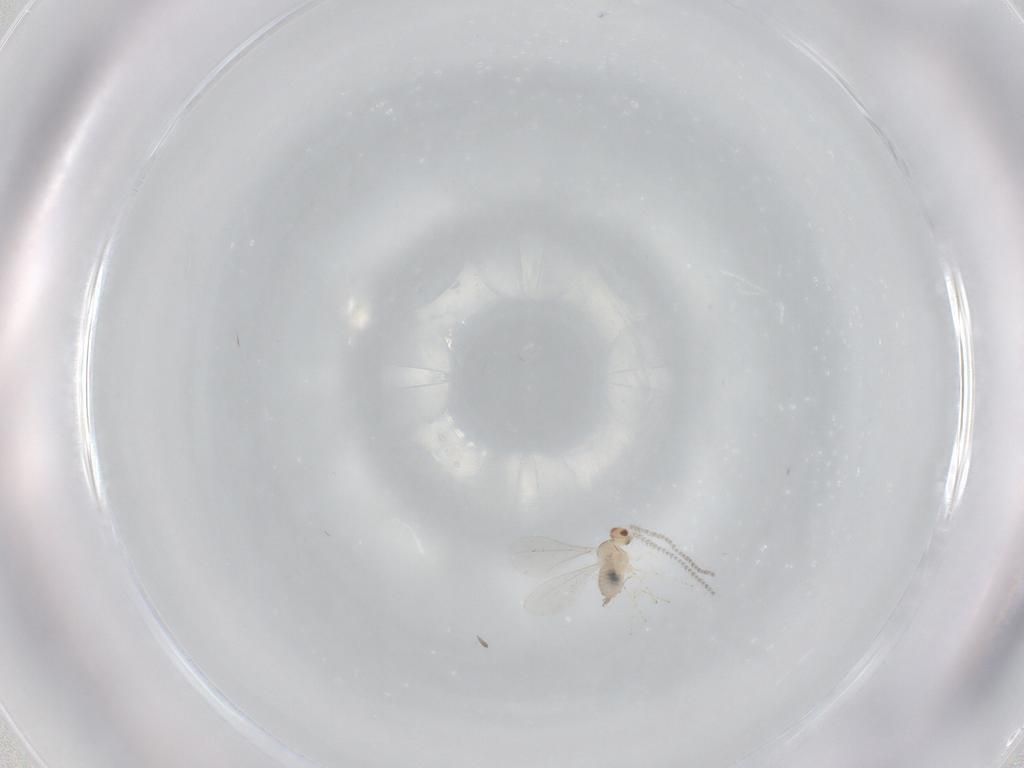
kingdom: Animalia
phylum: Arthropoda
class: Insecta
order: Diptera
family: Cecidomyiidae
